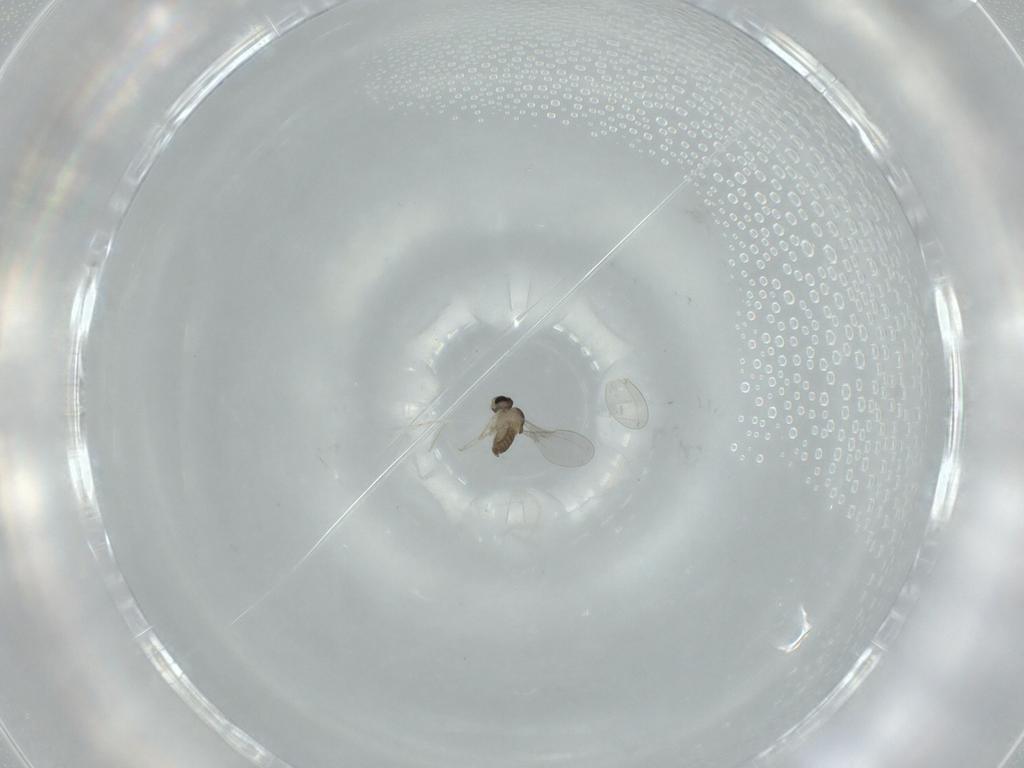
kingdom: Animalia
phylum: Arthropoda
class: Insecta
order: Diptera
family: Cecidomyiidae
